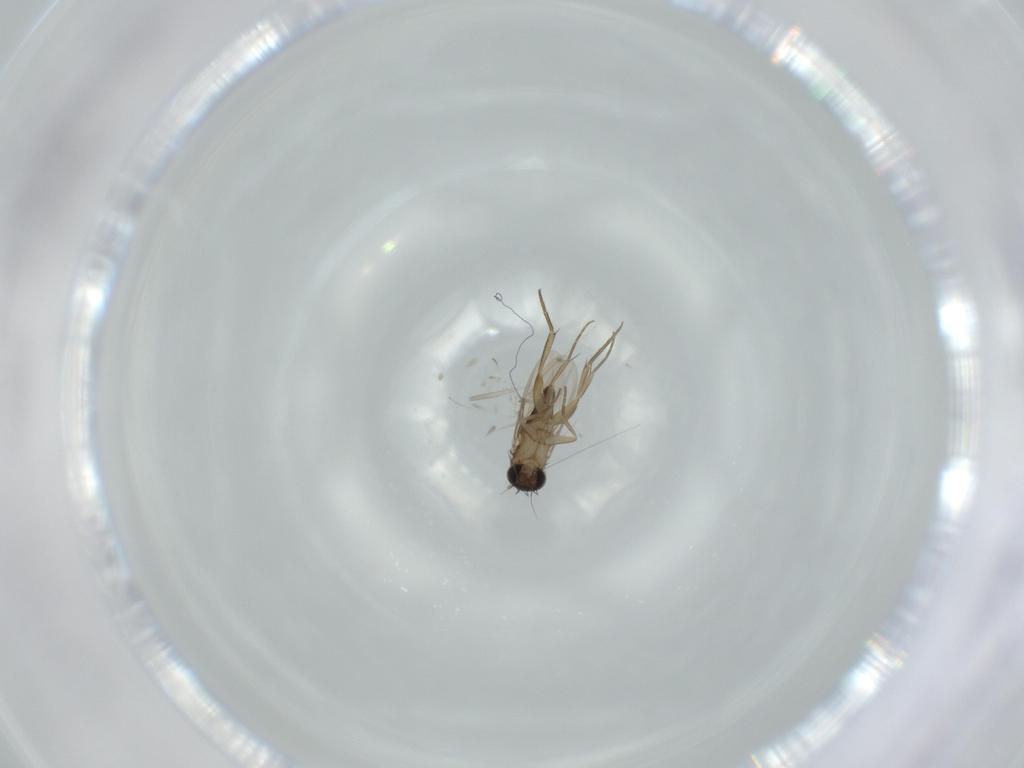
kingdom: Animalia
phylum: Arthropoda
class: Insecta
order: Diptera
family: Phoridae
